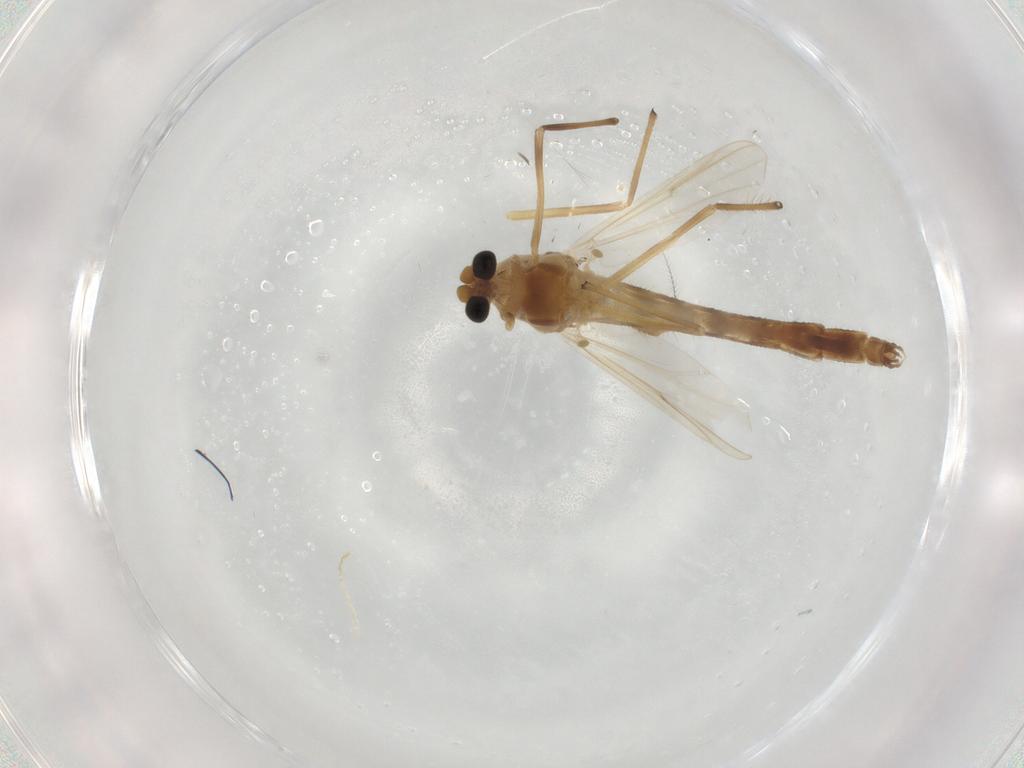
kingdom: Animalia
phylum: Arthropoda
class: Insecta
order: Diptera
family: Chironomidae
